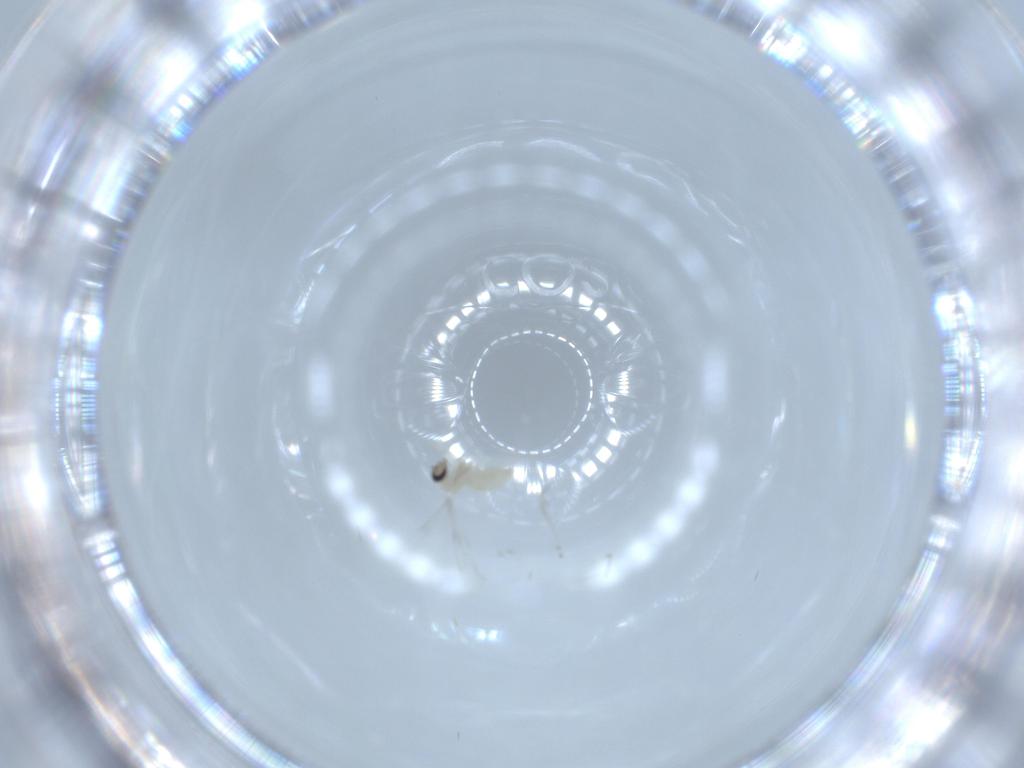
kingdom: Animalia
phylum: Arthropoda
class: Insecta
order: Diptera
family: Cecidomyiidae
